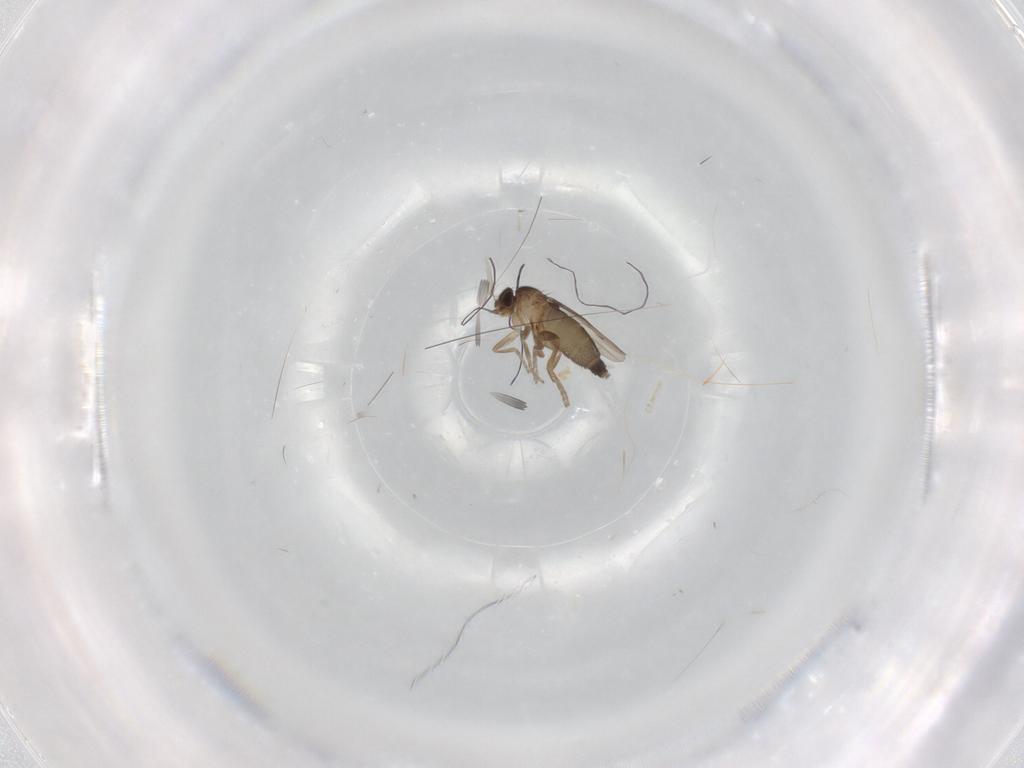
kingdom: Animalia
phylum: Arthropoda
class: Insecta
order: Diptera
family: Phoridae
